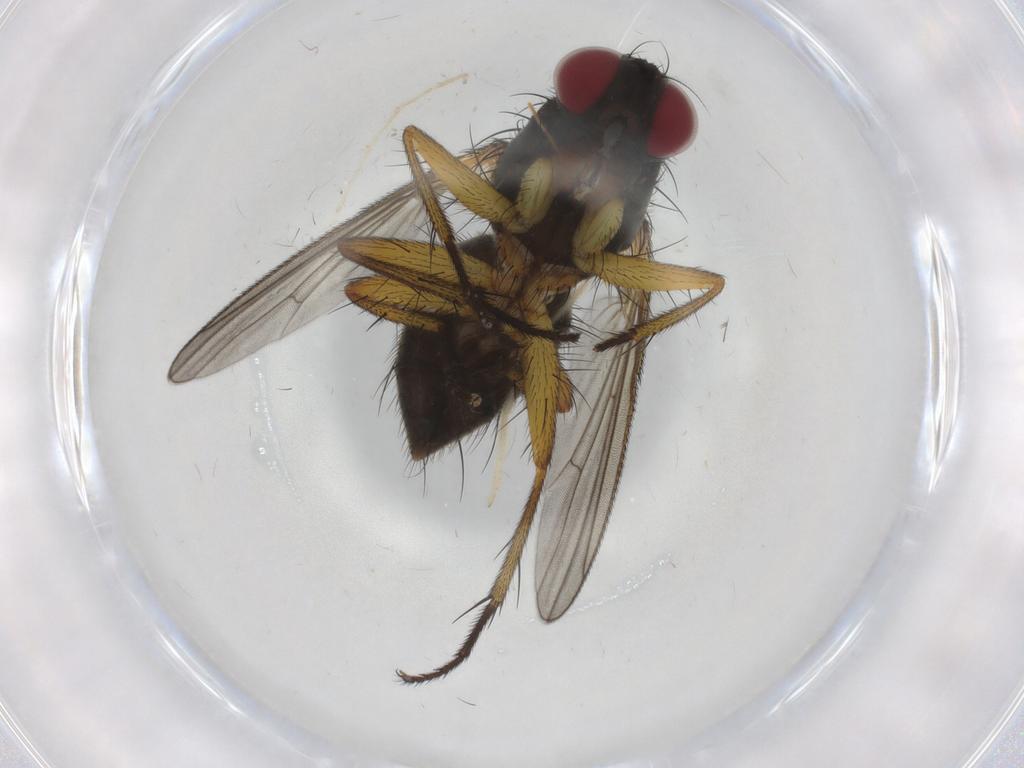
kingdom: Animalia
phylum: Arthropoda
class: Insecta
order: Diptera
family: Muscidae
